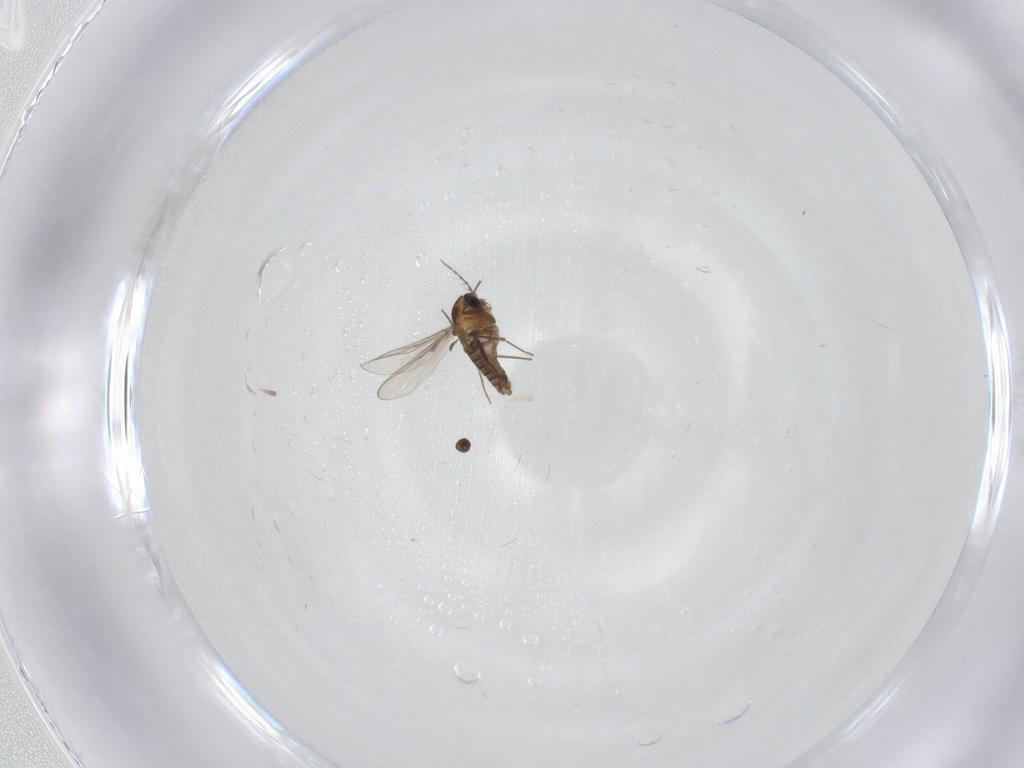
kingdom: Animalia
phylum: Arthropoda
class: Insecta
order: Diptera
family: Chironomidae
